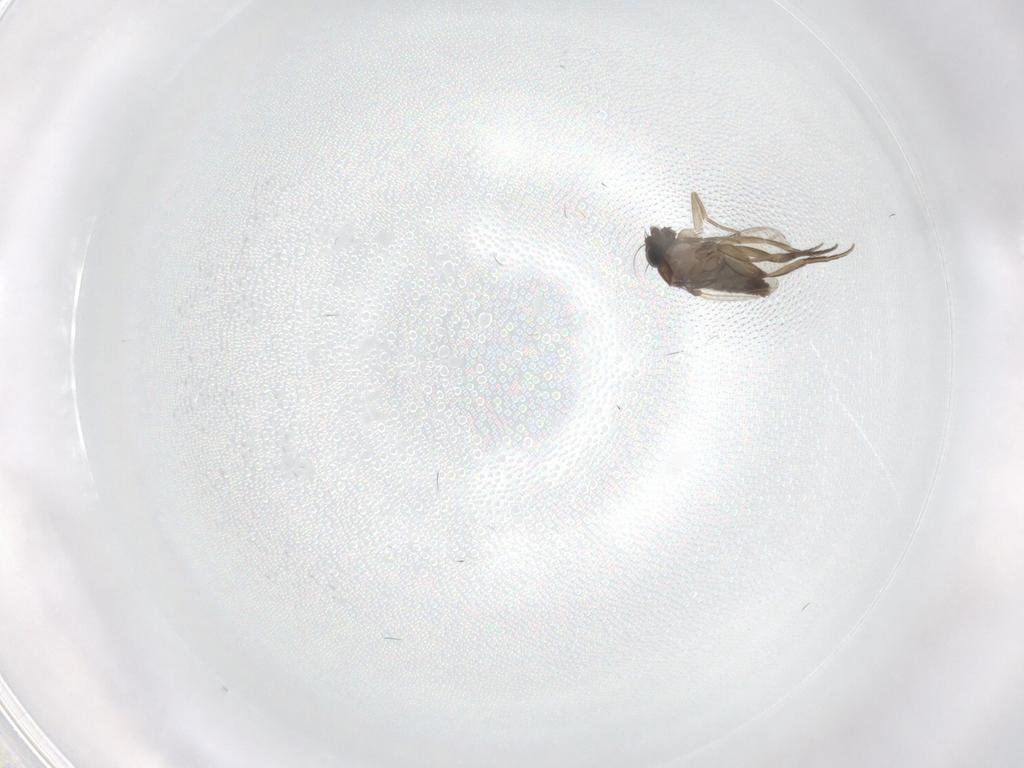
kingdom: Animalia
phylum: Arthropoda
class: Insecta
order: Diptera
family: Phoridae
